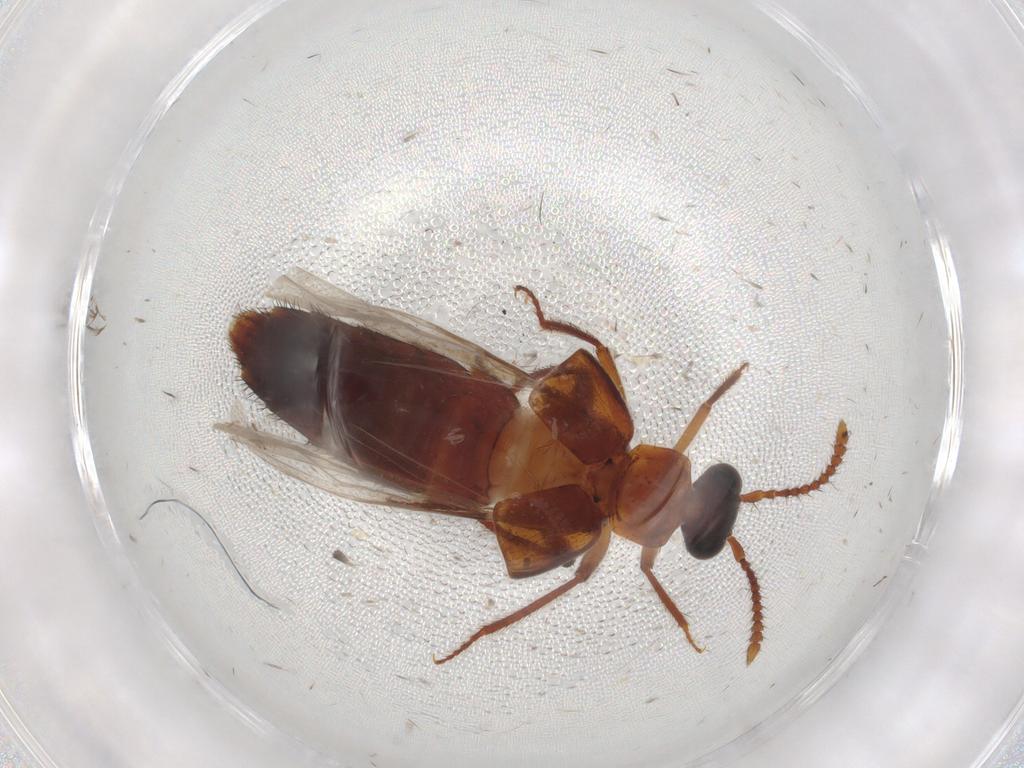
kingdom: Animalia
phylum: Arthropoda
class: Insecta
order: Coleoptera
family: Staphylinidae
